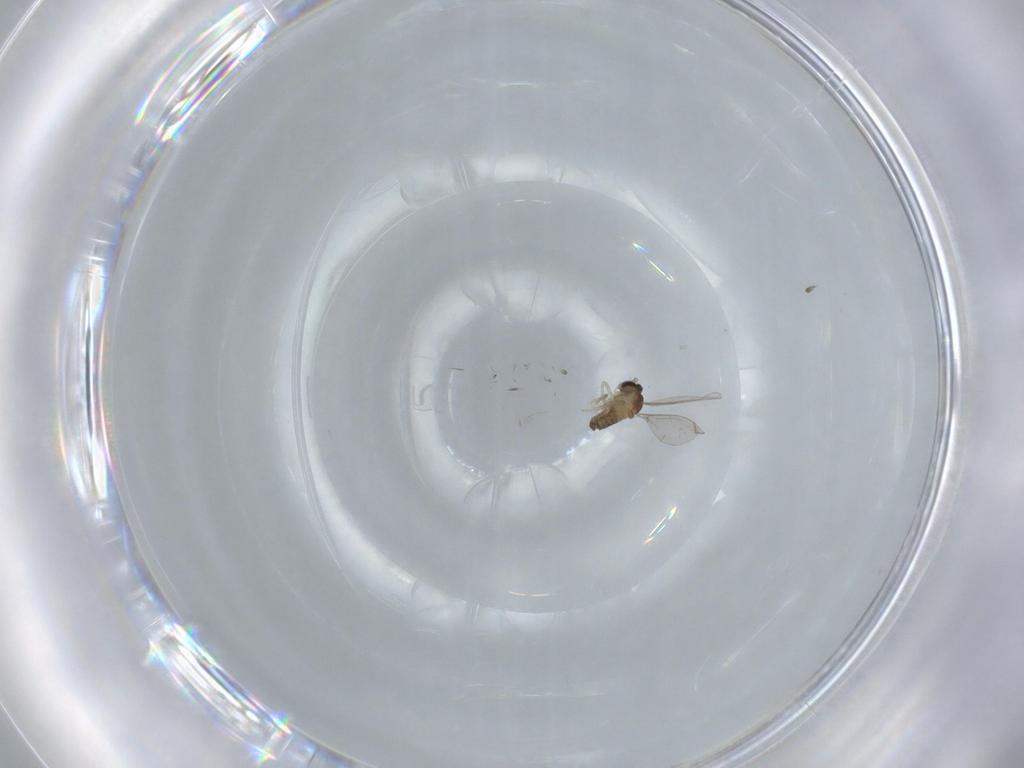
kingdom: Animalia
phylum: Arthropoda
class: Insecta
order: Diptera
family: Cecidomyiidae
